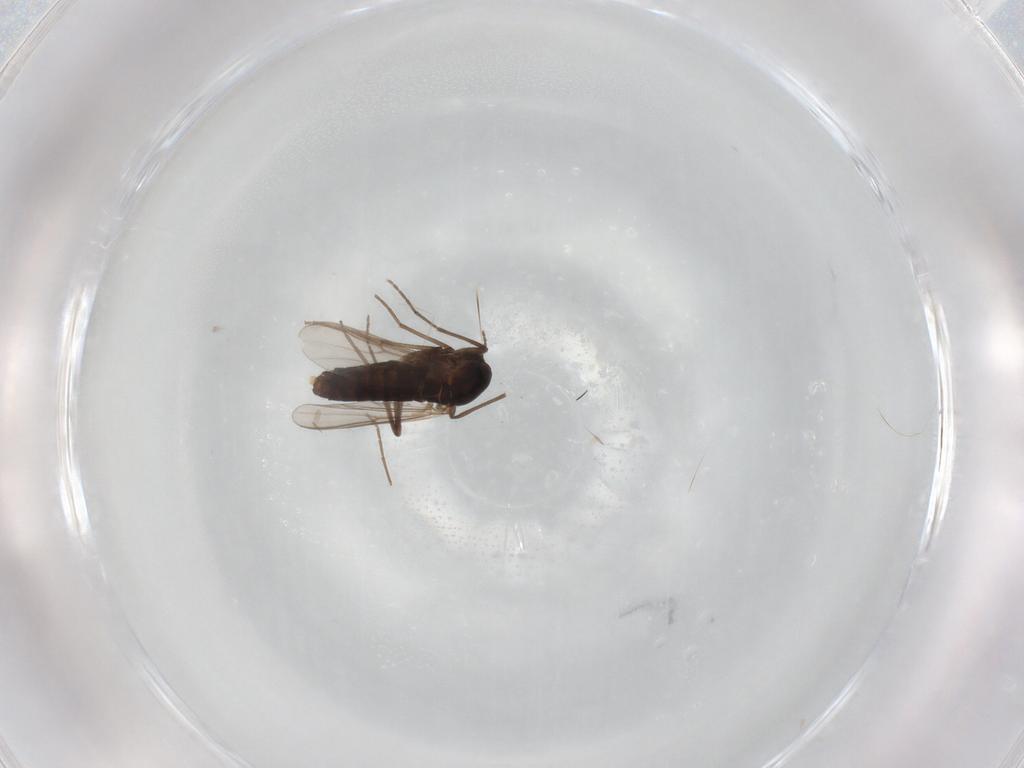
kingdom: Animalia
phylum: Arthropoda
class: Insecta
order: Diptera
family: Chironomidae
